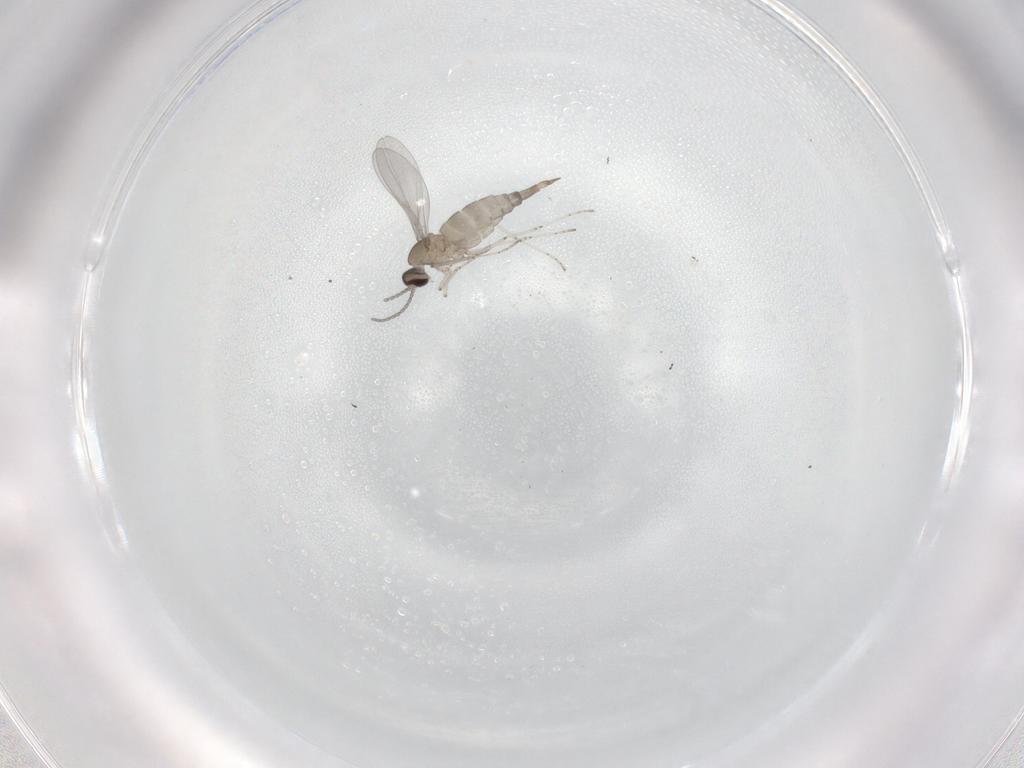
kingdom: Animalia
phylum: Arthropoda
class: Insecta
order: Diptera
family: Cecidomyiidae
